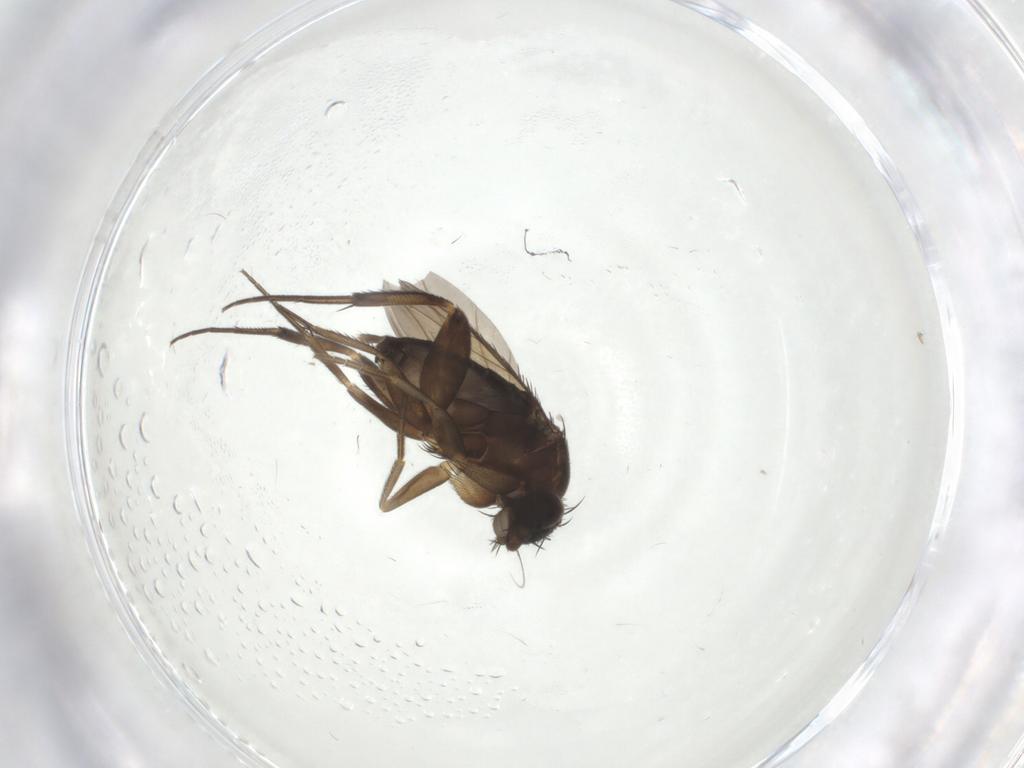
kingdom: Animalia
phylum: Arthropoda
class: Insecta
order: Diptera
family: Phoridae
